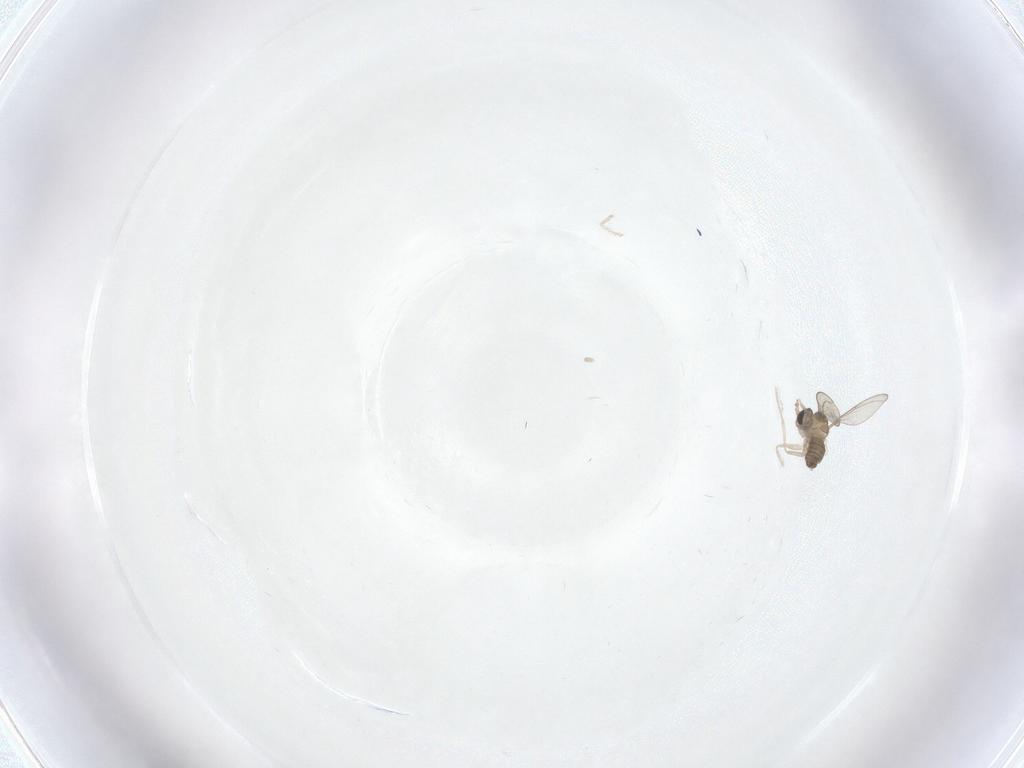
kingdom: Animalia
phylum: Arthropoda
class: Insecta
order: Diptera
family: Cecidomyiidae
